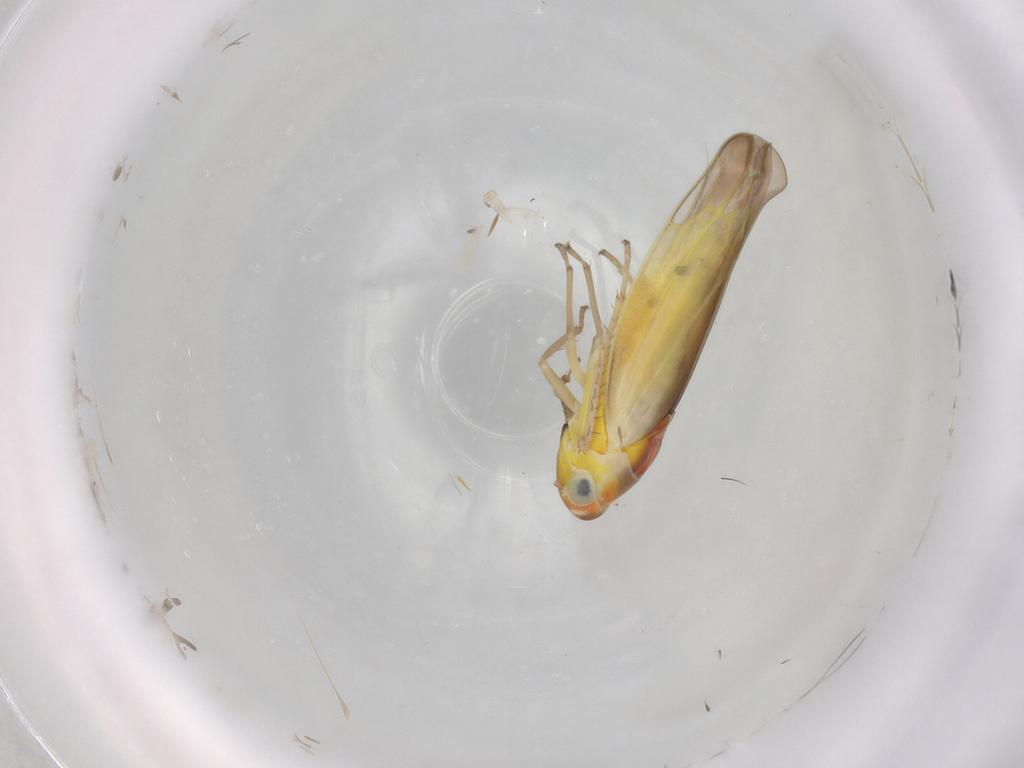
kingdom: Animalia
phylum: Arthropoda
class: Insecta
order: Hemiptera
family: Cicadellidae
